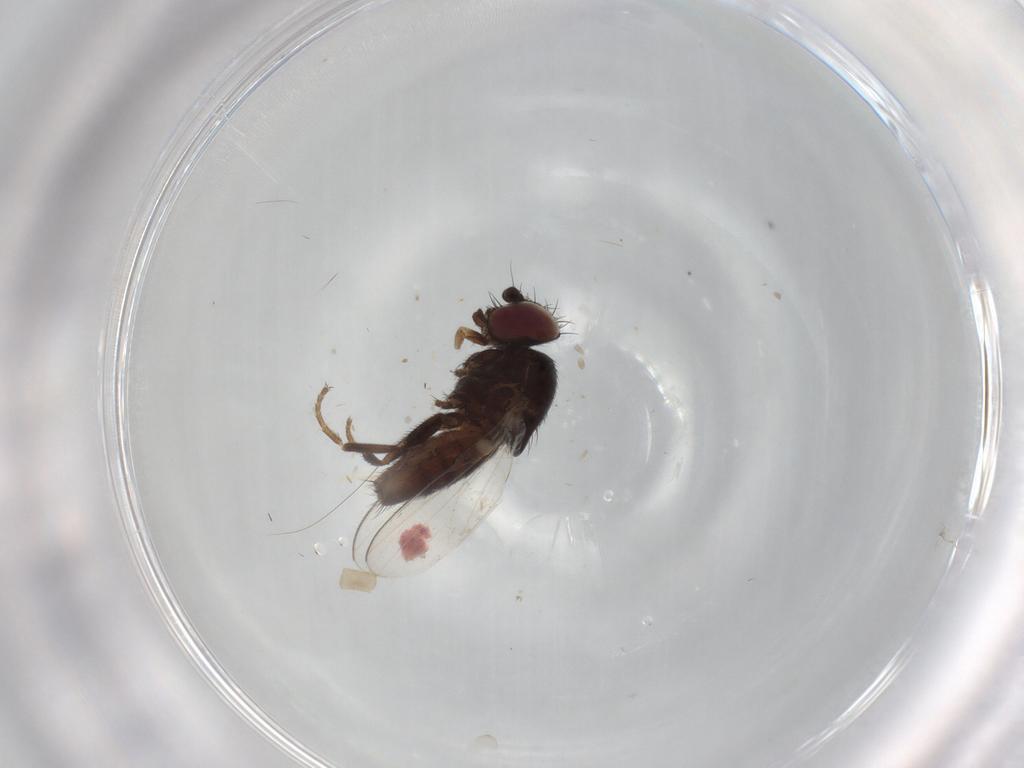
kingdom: Animalia
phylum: Arthropoda
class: Insecta
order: Diptera
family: Milichiidae
